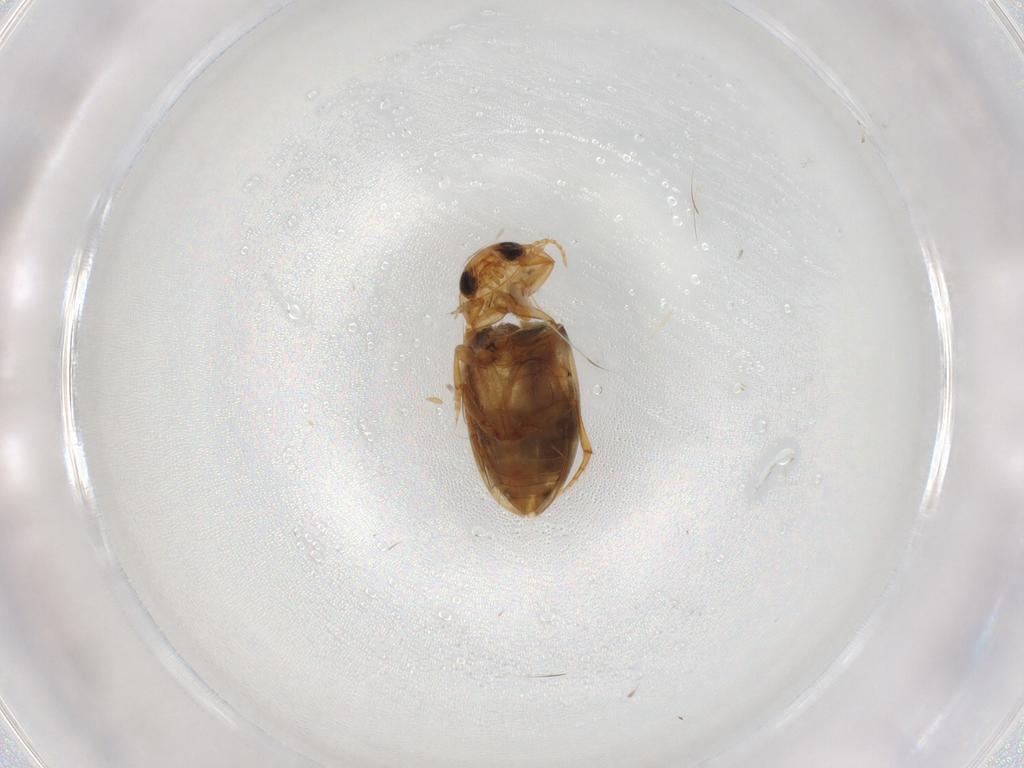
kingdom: Animalia
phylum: Arthropoda
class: Insecta
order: Coleoptera
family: Dytiscidae
